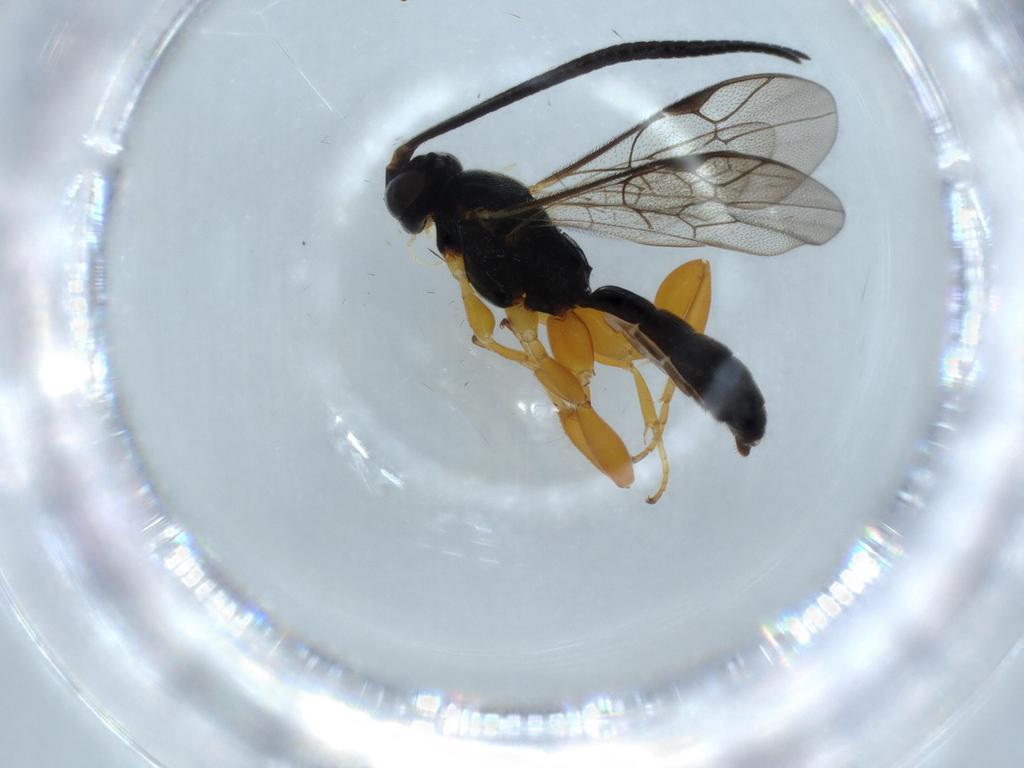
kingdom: Animalia
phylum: Arthropoda
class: Insecta
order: Hymenoptera
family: Ichneumonidae
